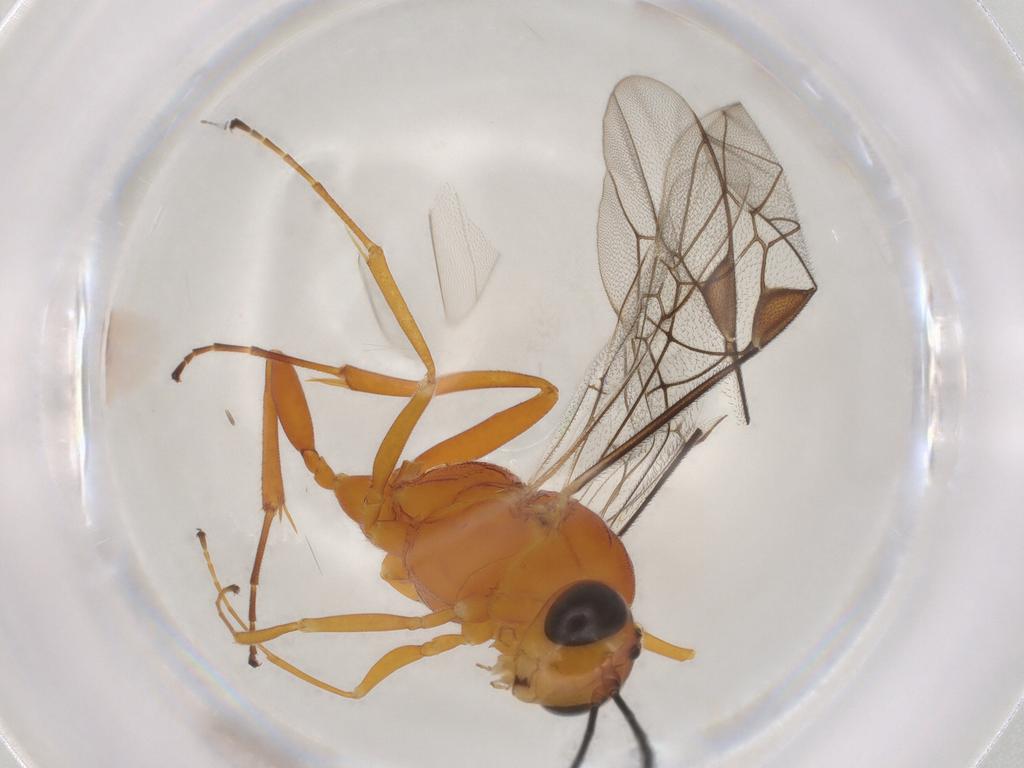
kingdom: Animalia
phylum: Arthropoda
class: Insecta
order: Hymenoptera
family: Ichneumonidae
